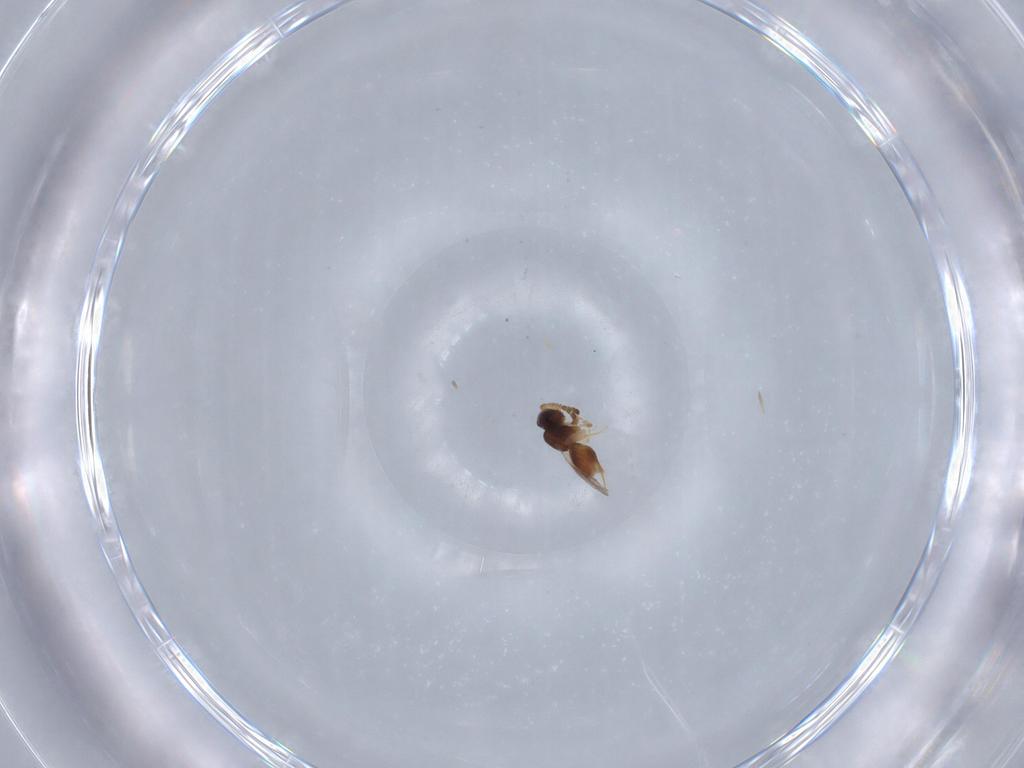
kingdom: Animalia
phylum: Arthropoda
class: Insecta
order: Hymenoptera
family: Diapriidae
